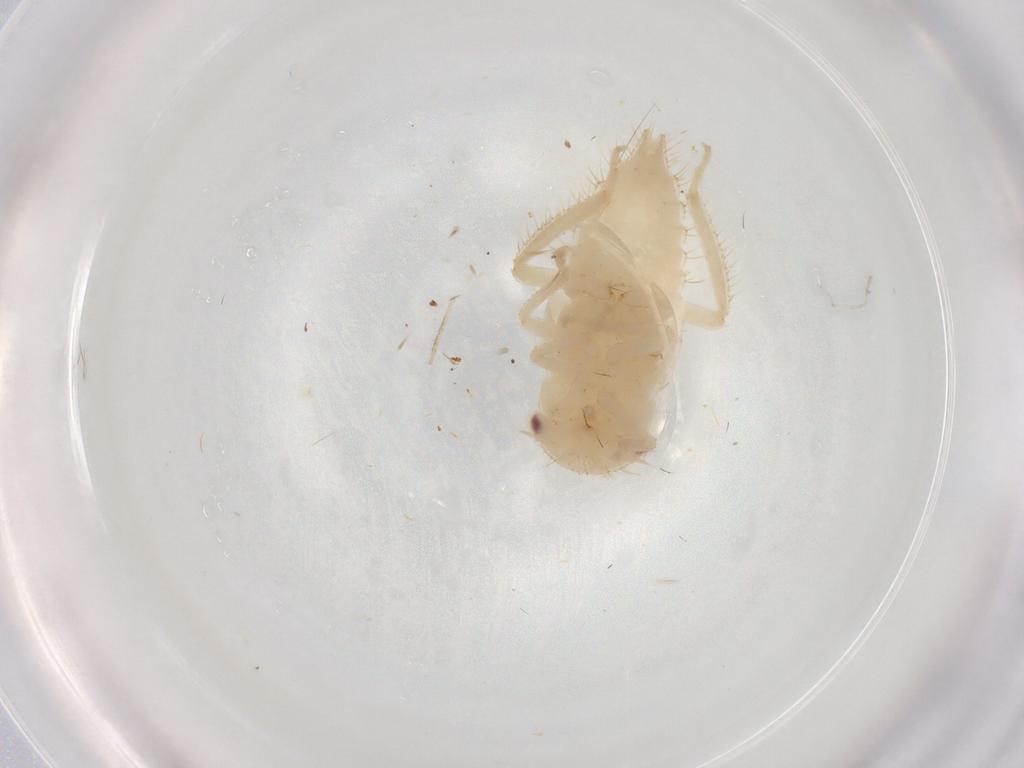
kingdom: Animalia
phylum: Arthropoda
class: Insecta
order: Hemiptera
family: Cicadellidae
